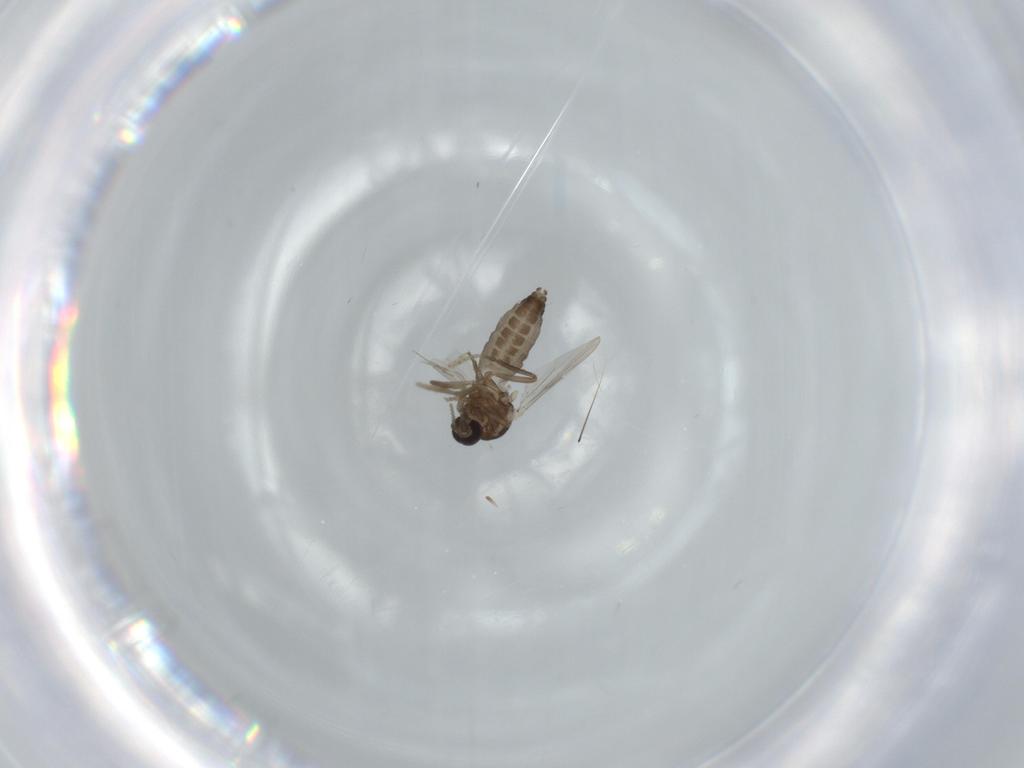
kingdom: Animalia
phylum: Arthropoda
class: Insecta
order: Diptera
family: Ceratopogonidae
